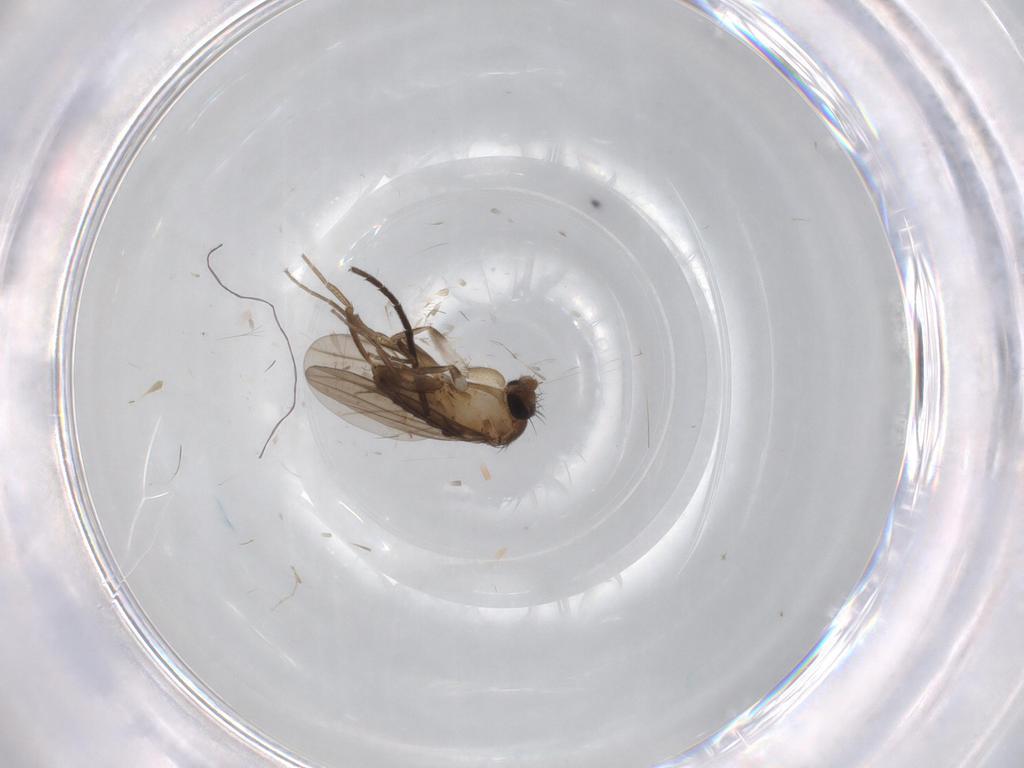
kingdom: Animalia
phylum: Arthropoda
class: Insecta
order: Diptera
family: Sciaridae
